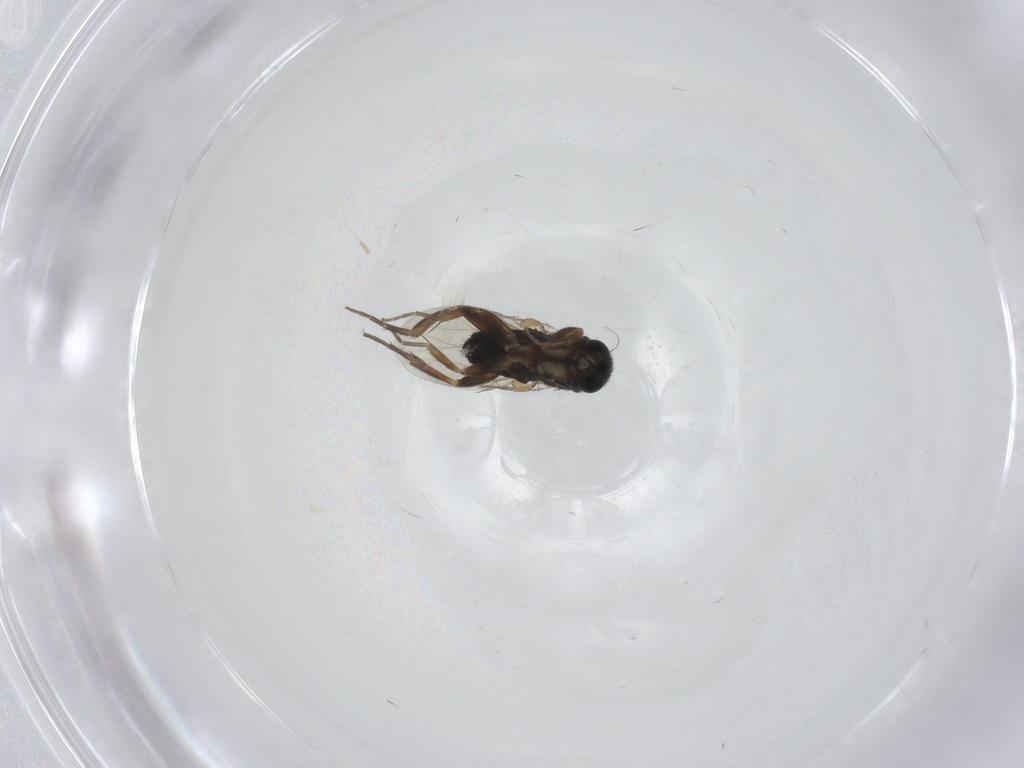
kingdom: Animalia
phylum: Arthropoda
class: Insecta
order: Diptera
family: Phoridae
